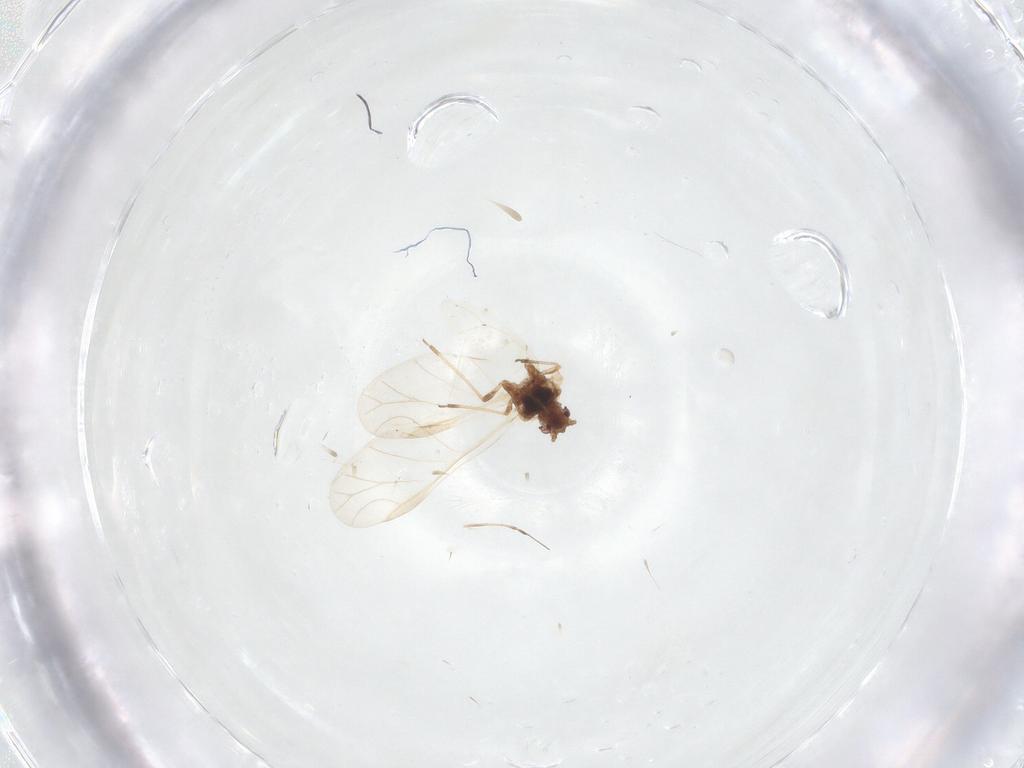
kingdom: Animalia
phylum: Arthropoda
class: Insecta
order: Hemiptera
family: Aphididae
